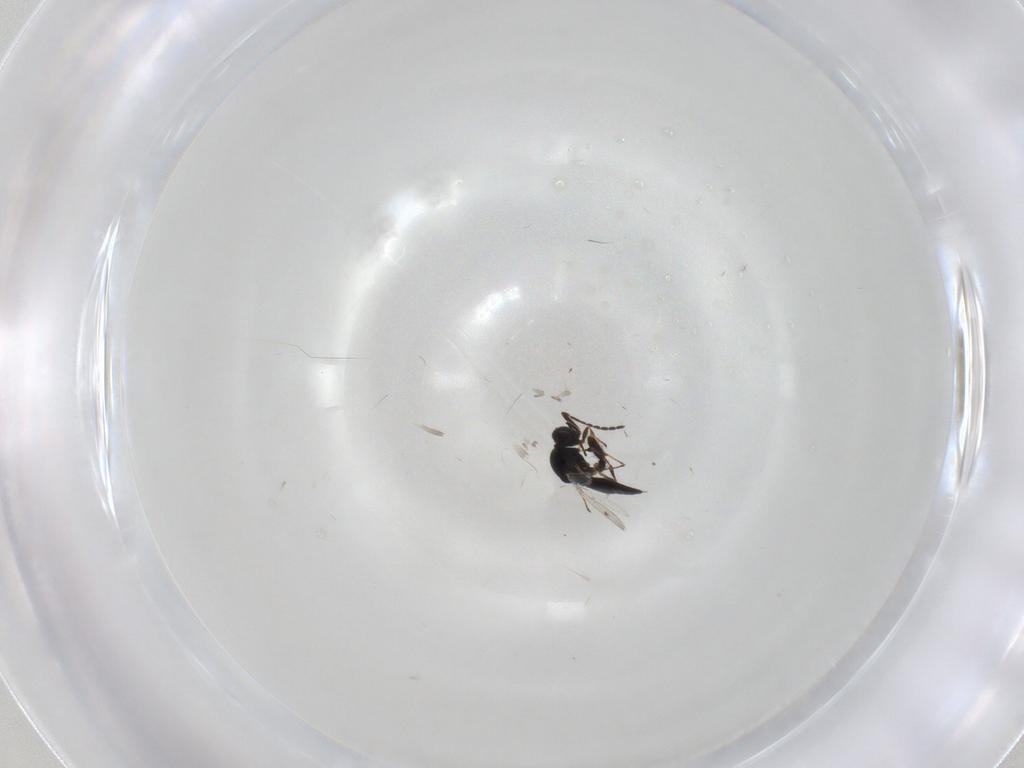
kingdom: Animalia
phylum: Arthropoda
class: Insecta
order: Hymenoptera
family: Platygastridae
